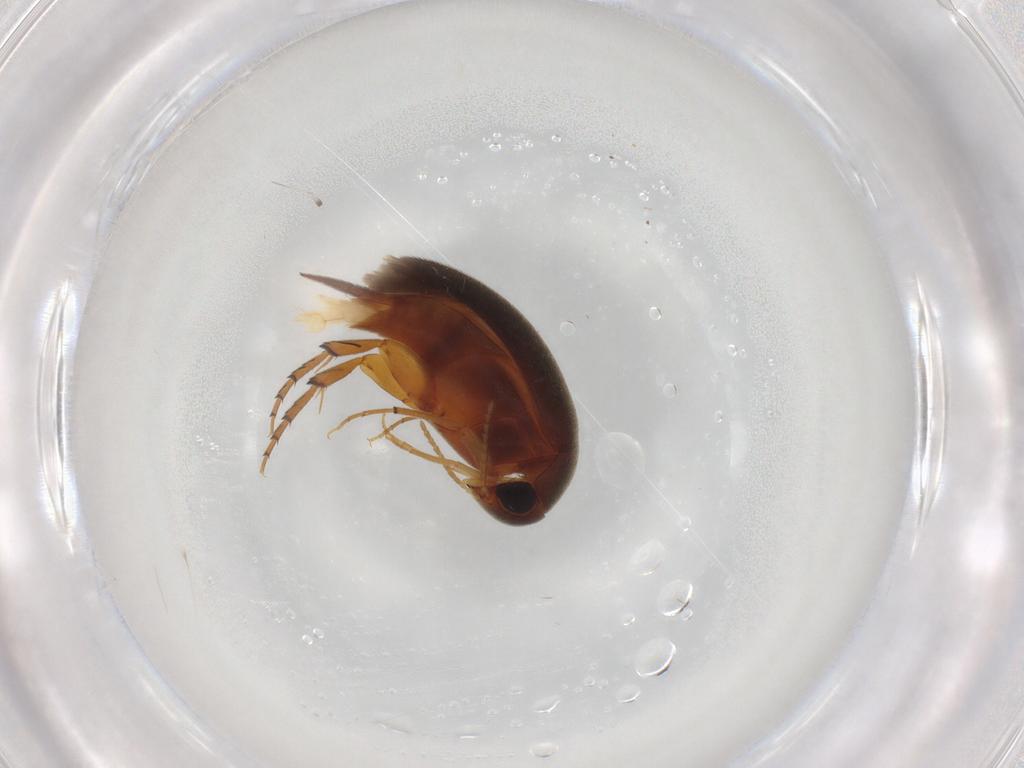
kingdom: Animalia
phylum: Arthropoda
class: Insecta
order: Coleoptera
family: Mordellidae
